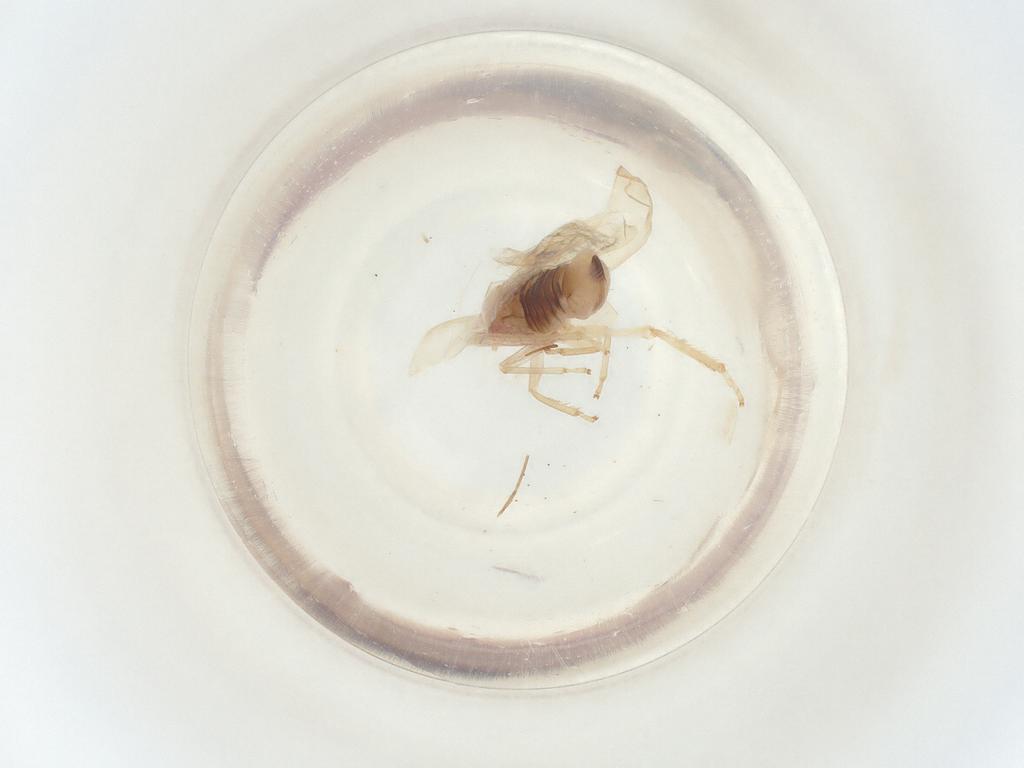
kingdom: Animalia
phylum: Arthropoda
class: Insecta
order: Hemiptera
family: Cicadellidae
